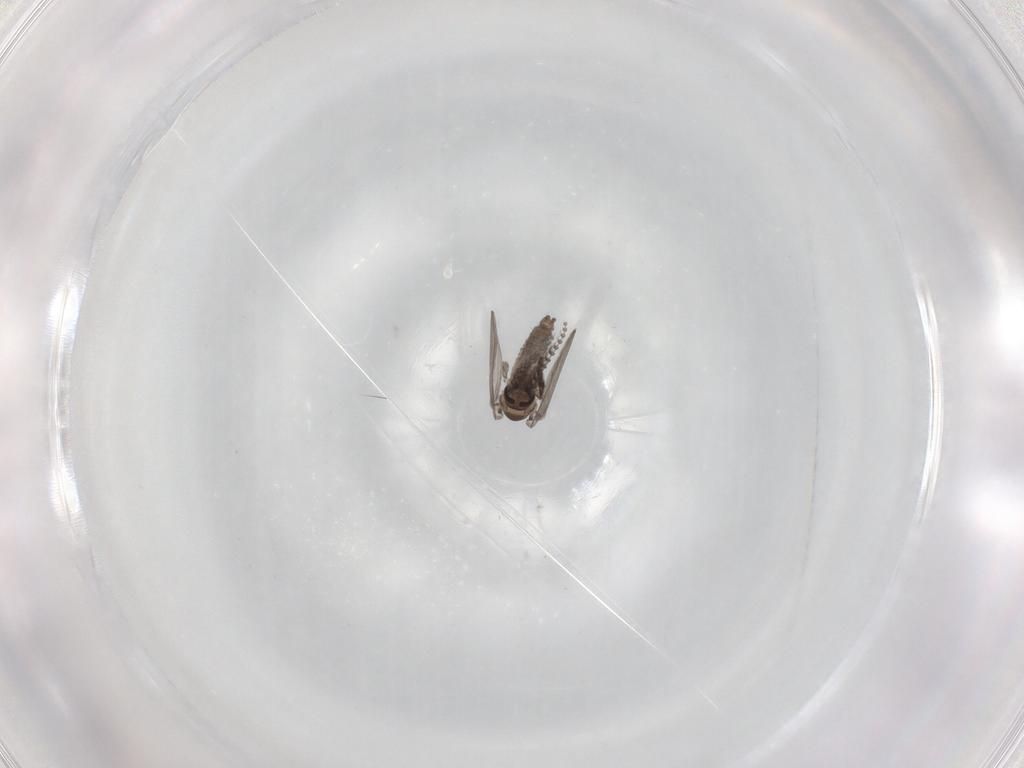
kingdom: Animalia
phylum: Arthropoda
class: Insecta
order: Diptera
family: Psychodidae
